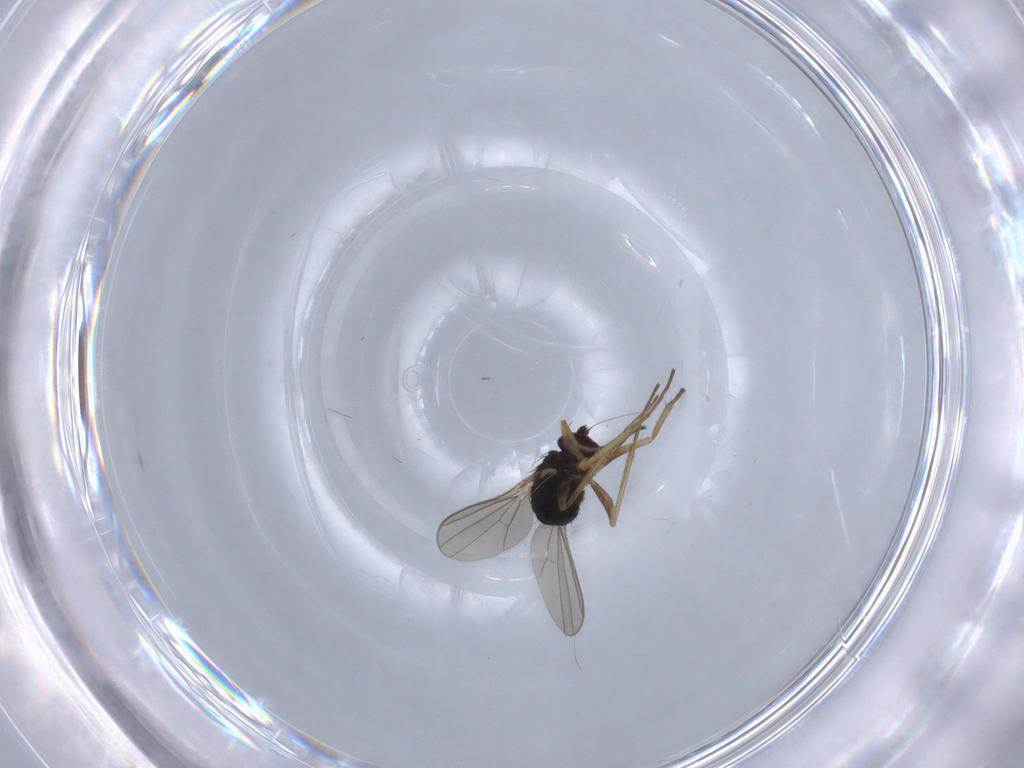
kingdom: Animalia
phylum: Arthropoda
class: Insecta
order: Diptera
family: Dolichopodidae
